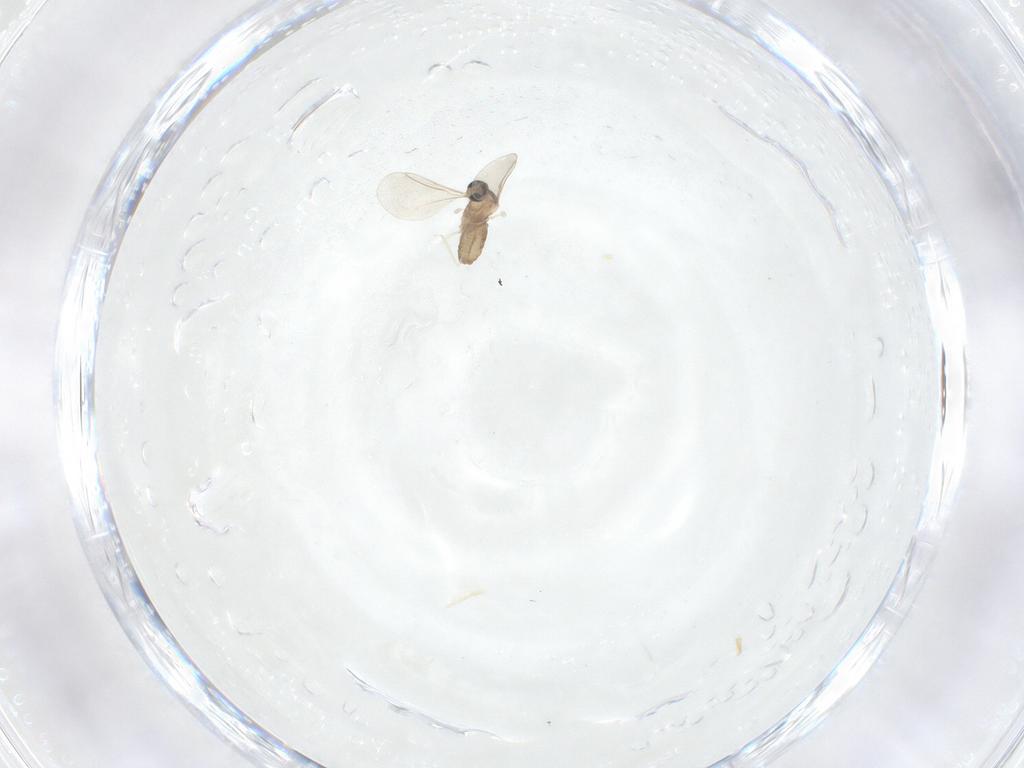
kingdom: Animalia
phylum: Arthropoda
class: Insecta
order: Diptera
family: Cecidomyiidae
